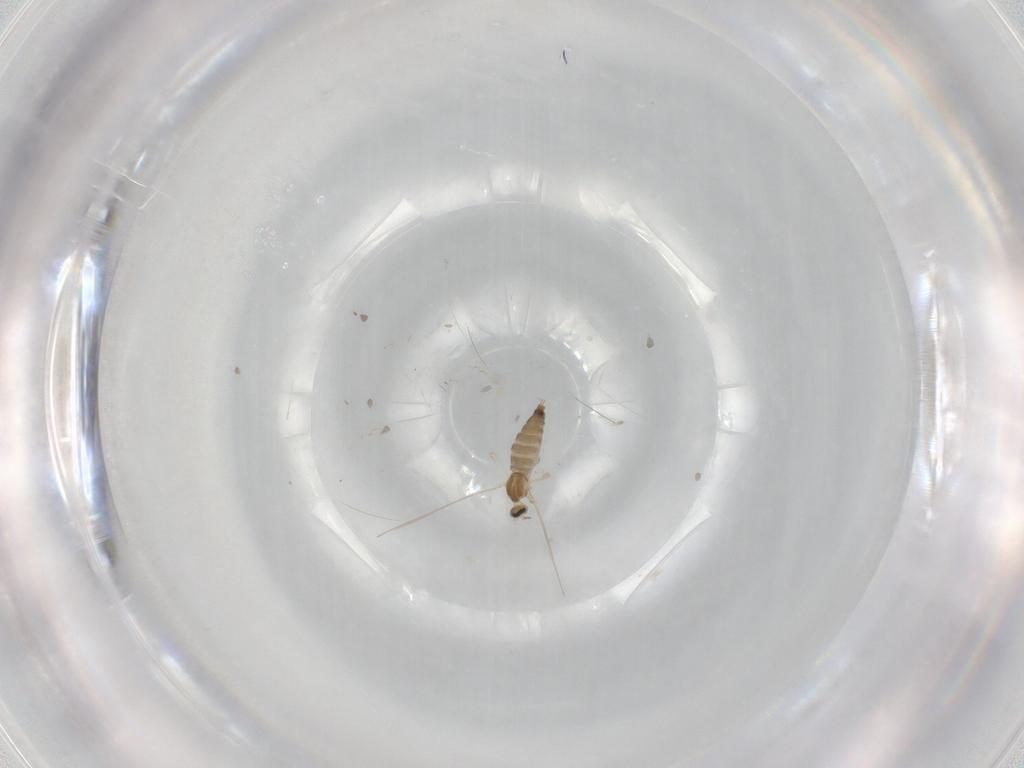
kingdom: Animalia
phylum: Arthropoda
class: Insecta
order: Diptera
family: Cecidomyiidae
